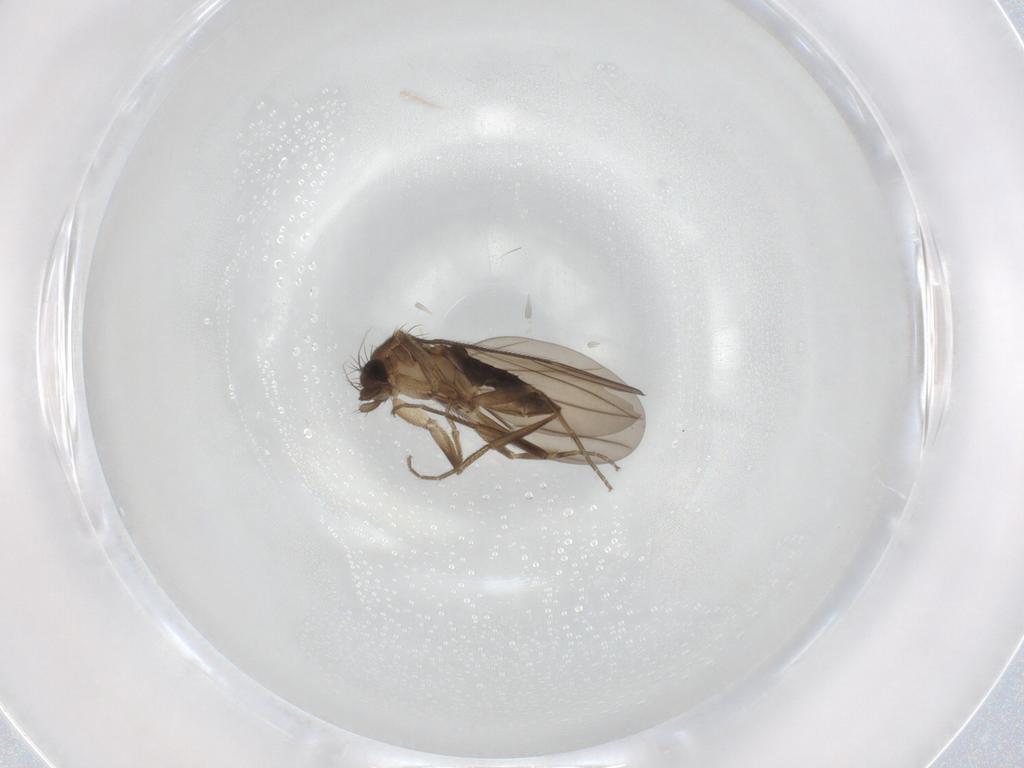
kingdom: Animalia
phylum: Arthropoda
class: Insecta
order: Diptera
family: Phoridae
